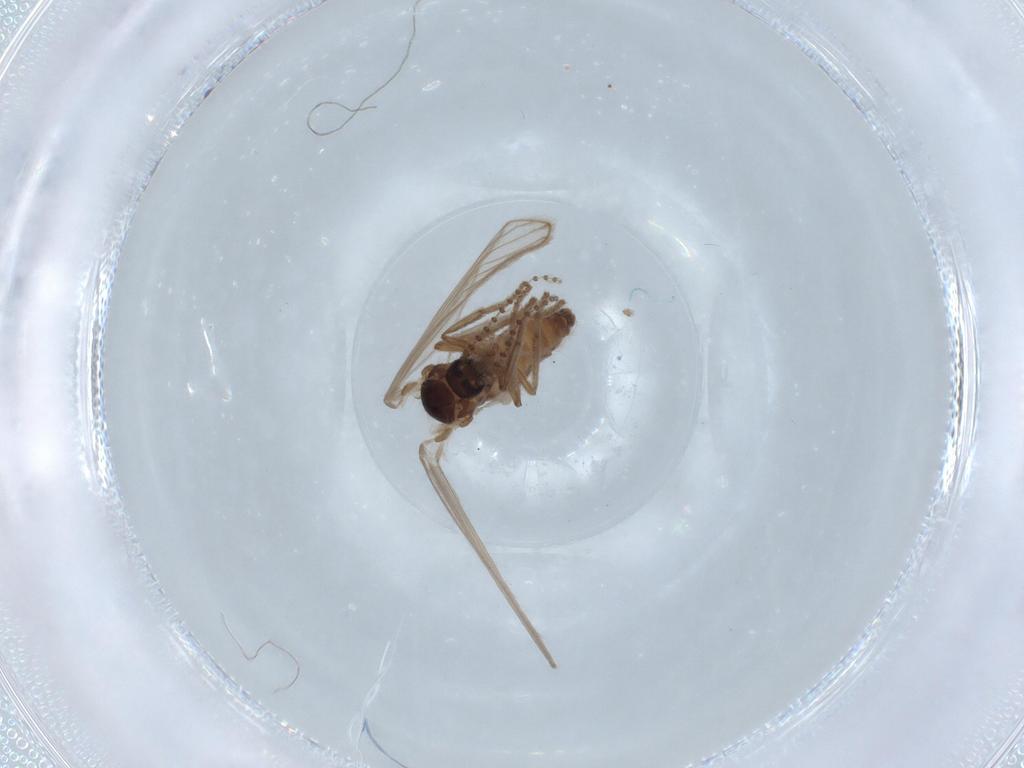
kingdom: Animalia
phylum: Arthropoda
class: Insecta
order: Diptera
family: Psychodidae
